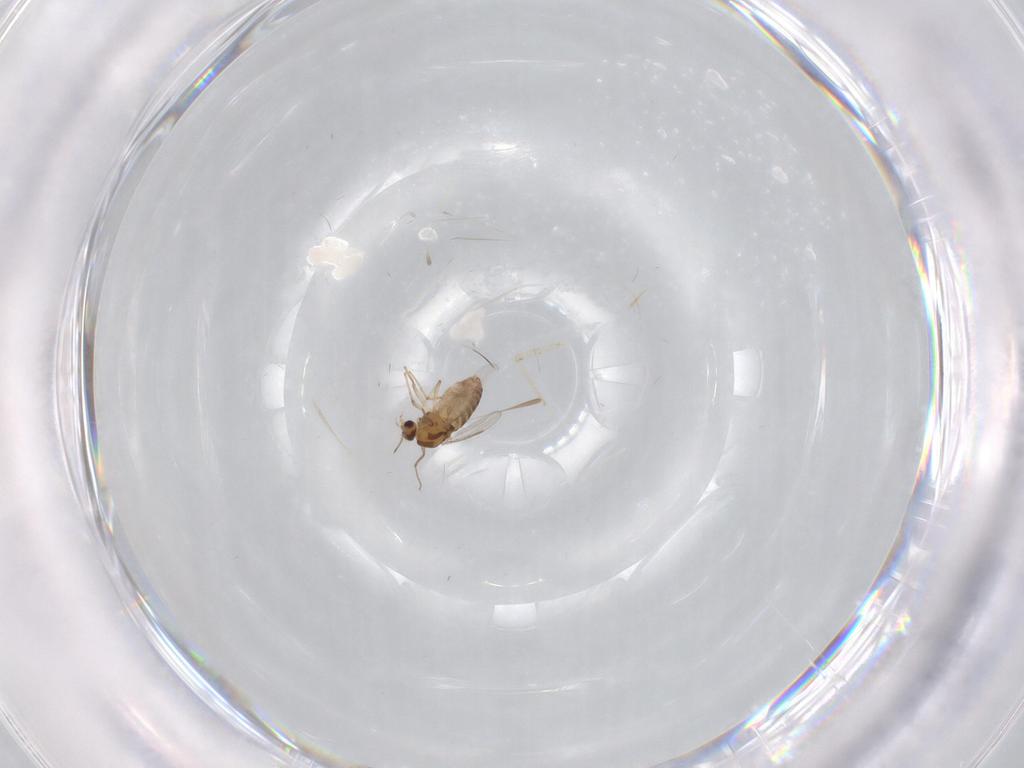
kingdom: Animalia
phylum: Arthropoda
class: Insecta
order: Diptera
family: Chironomidae
